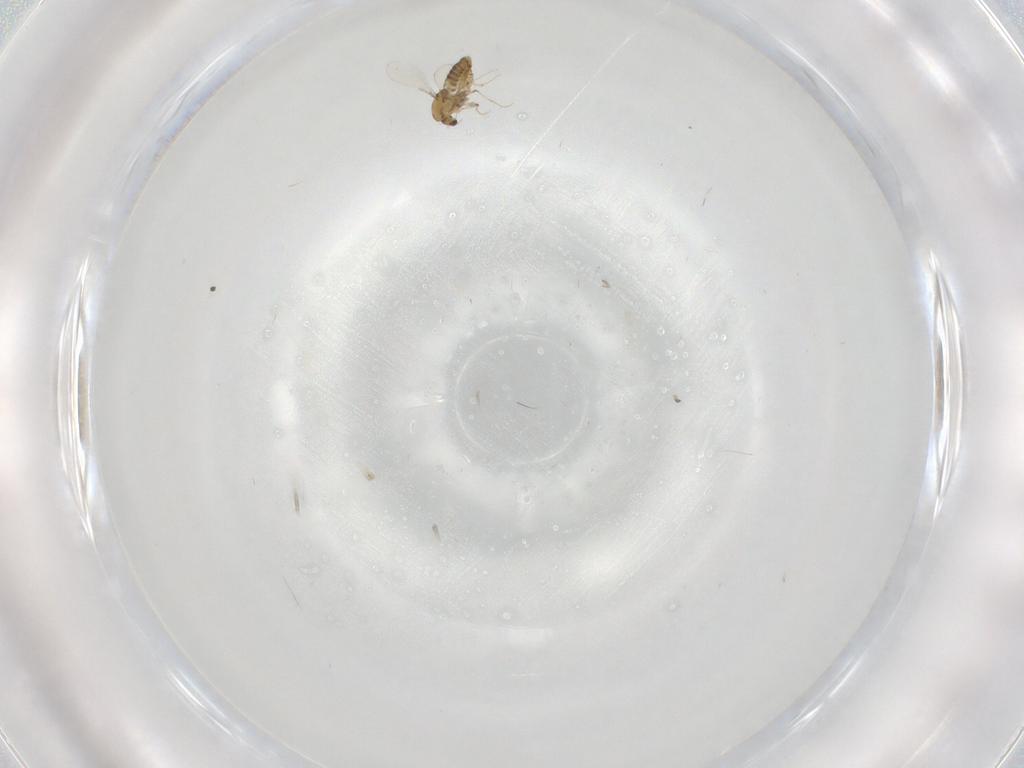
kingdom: Animalia
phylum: Arthropoda
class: Insecta
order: Diptera
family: Chironomidae
